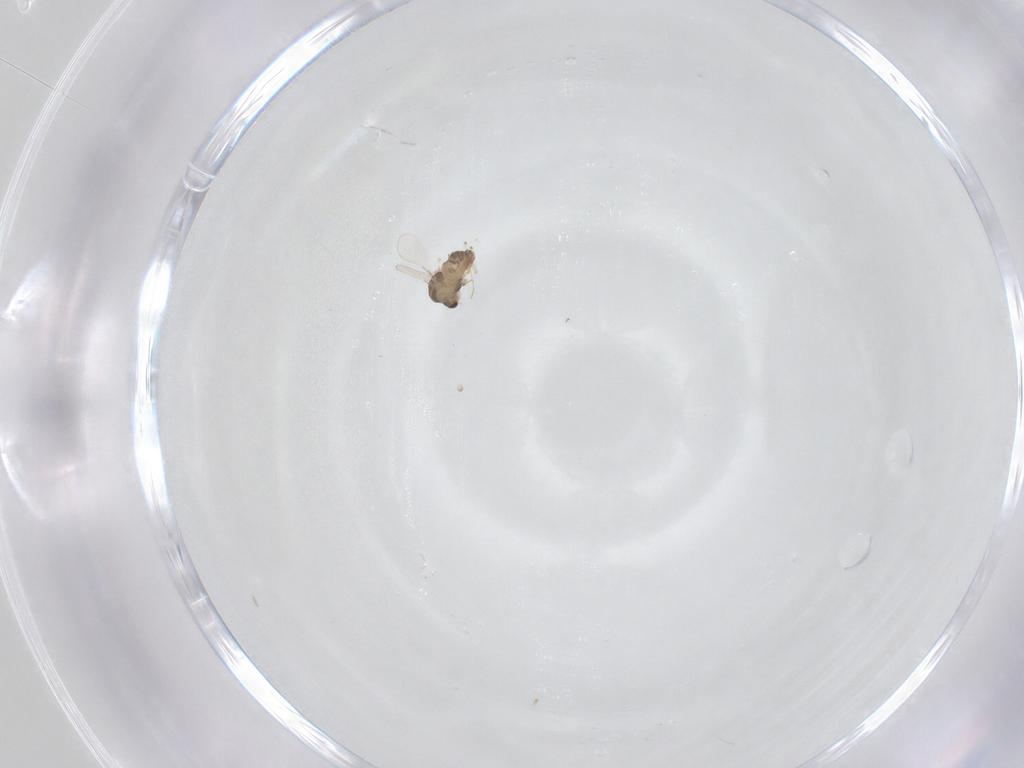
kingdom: Animalia
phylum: Arthropoda
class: Insecta
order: Diptera
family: Chironomidae
